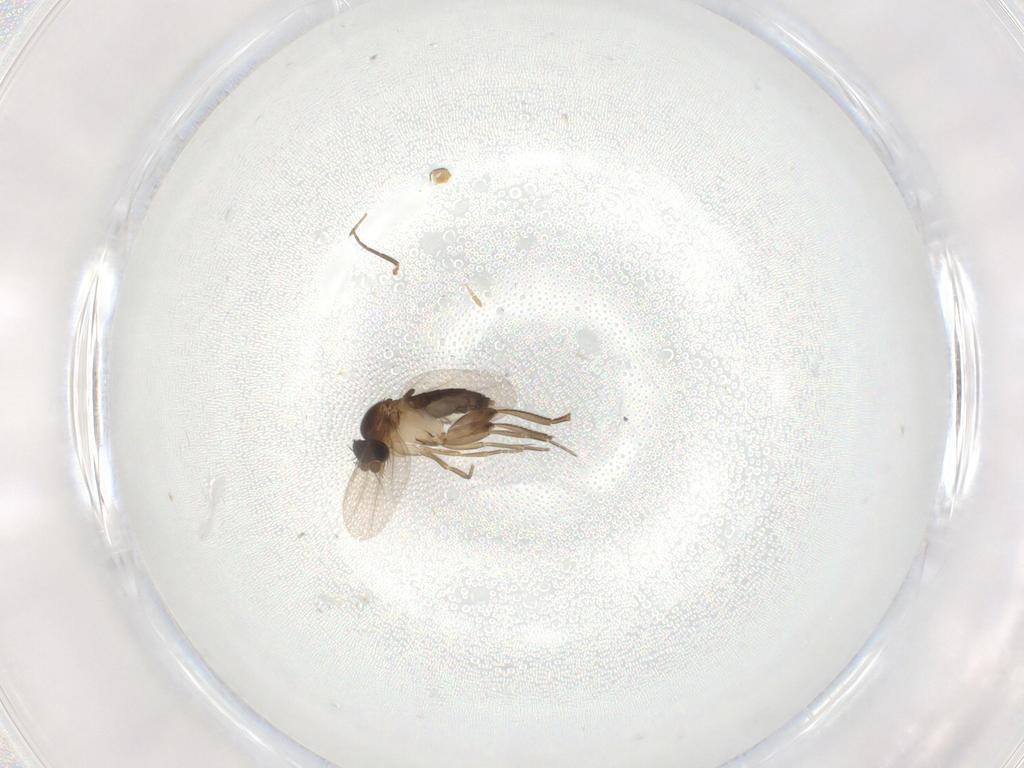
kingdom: Animalia
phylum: Arthropoda
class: Insecta
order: Diptera
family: Phoridae
